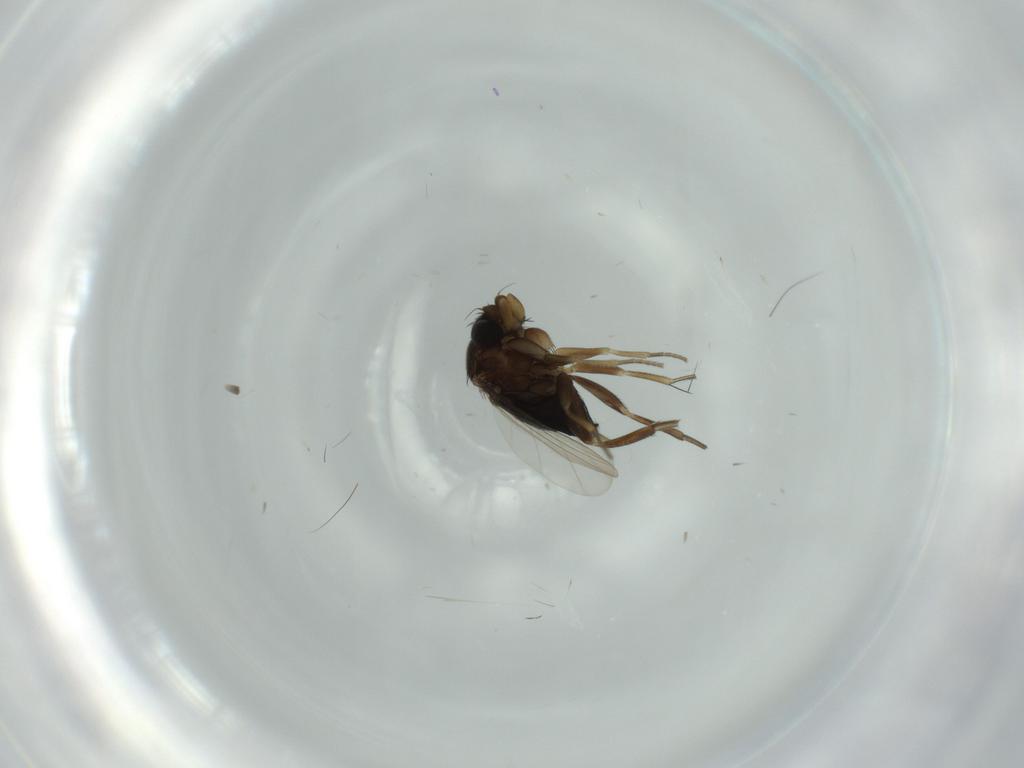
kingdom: Animalia
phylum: Arthropoda
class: Insecta
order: Diptera
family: Phoridae
